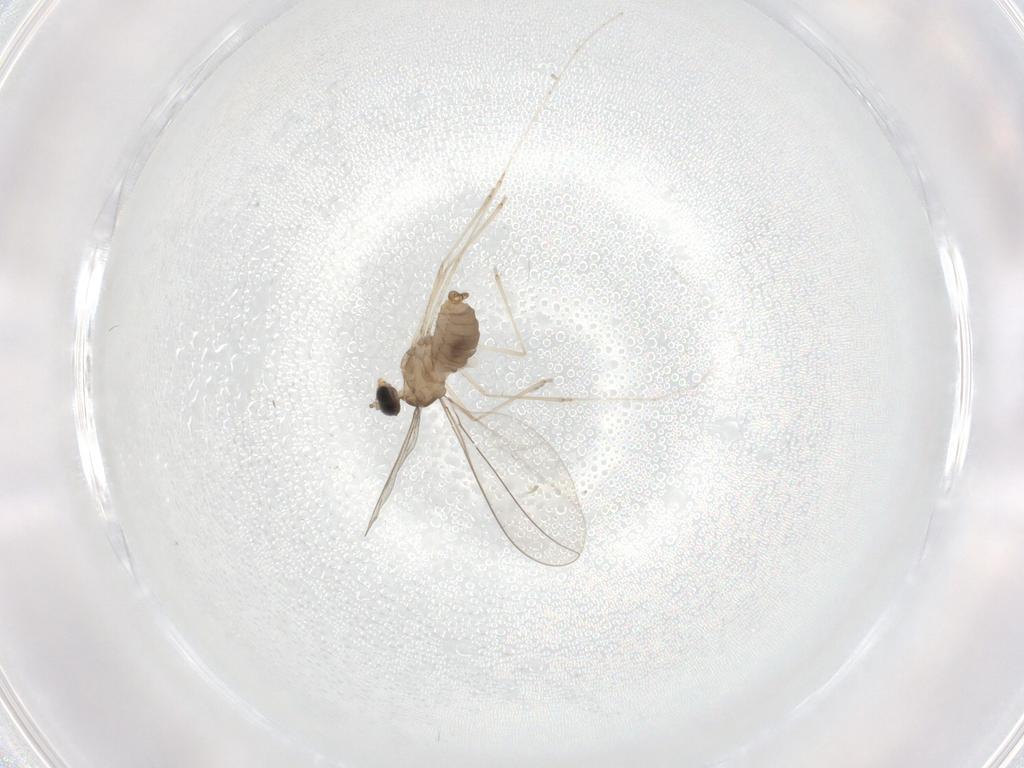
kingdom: Animalia
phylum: Arthropoda
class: Insecta
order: Diptera
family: Cecidomyiidae
